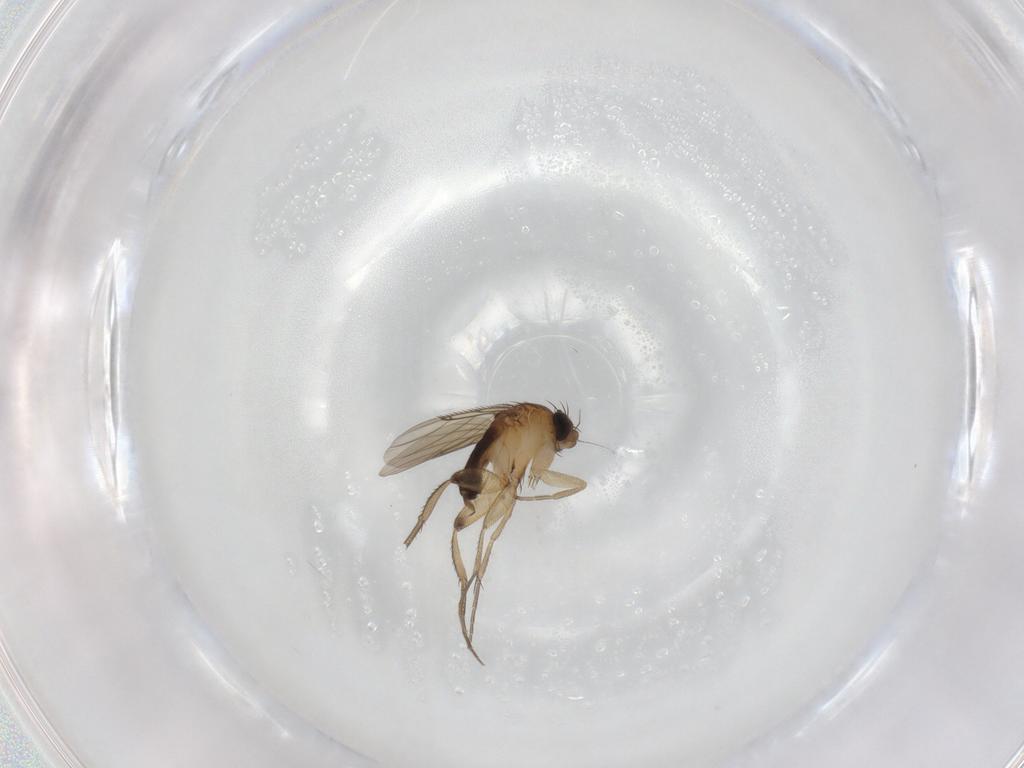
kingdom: Animalia
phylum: Arthropoda
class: Insecta
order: Diptera
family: Phoridae
